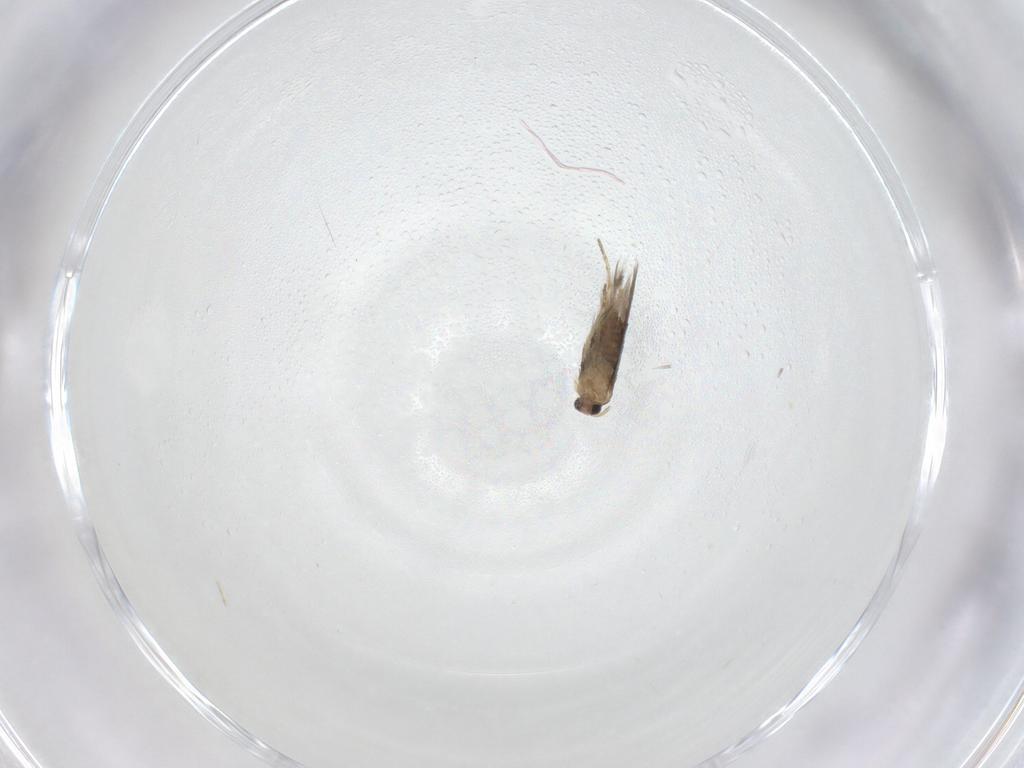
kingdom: Animalia
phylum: Arthropoda
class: Insecta
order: Lepidoptera
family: Nepticulidae
